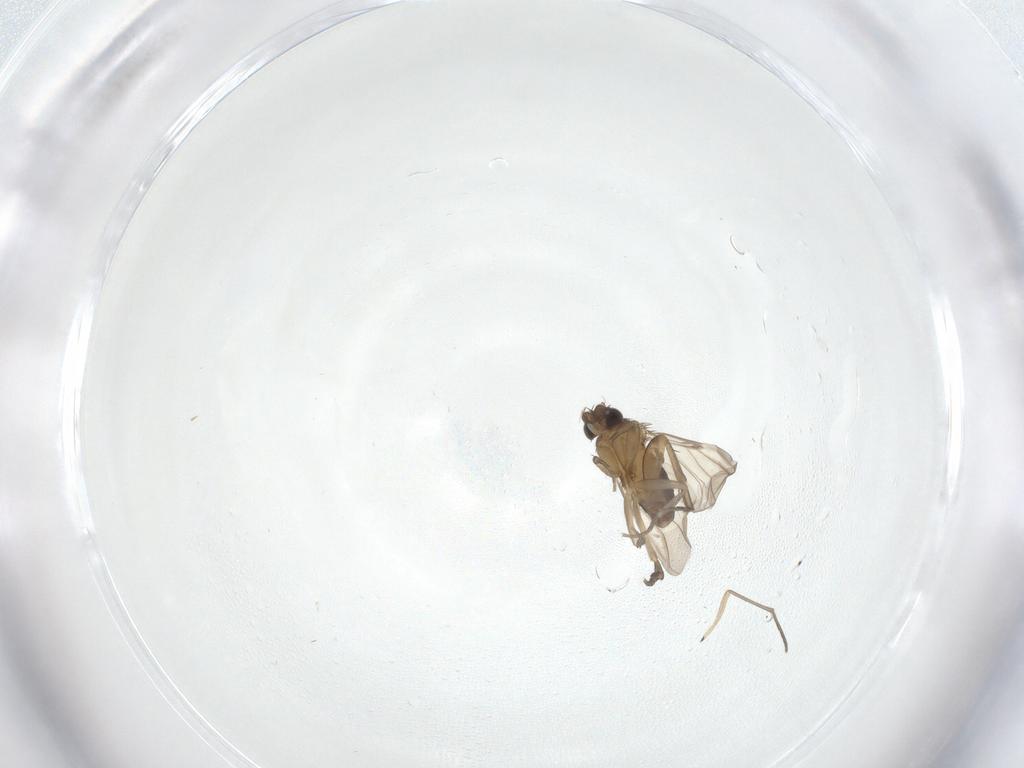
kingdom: Animalia
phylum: Arthropoda
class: Insecta
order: Diptera
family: Phoridae
